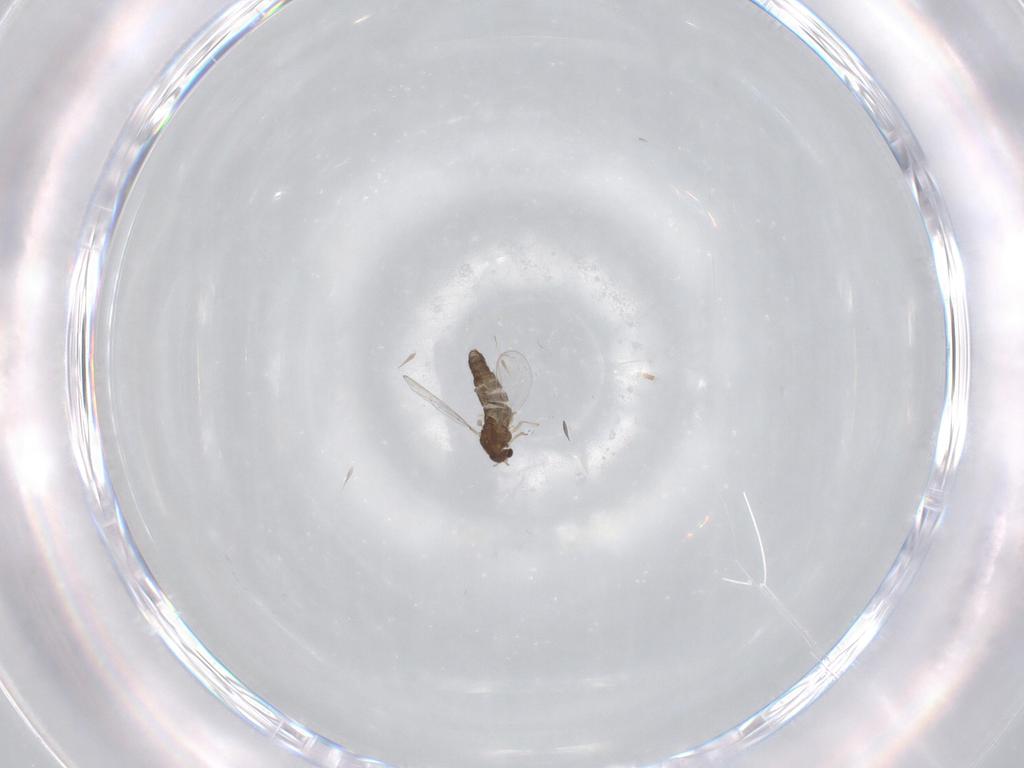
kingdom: Animalia
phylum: Arthropoda
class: Insecta
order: Diptera
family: Chironomidae
